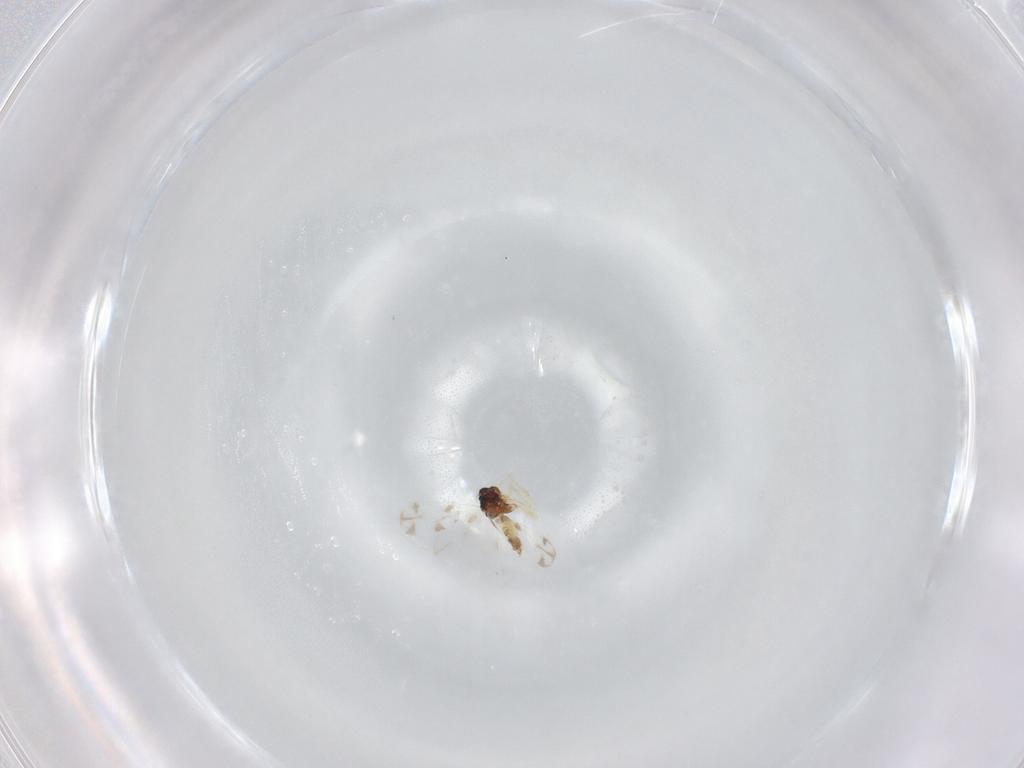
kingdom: Animalia
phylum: Arthropoda
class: Insecta
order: Hemiptera
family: Aleyrodidae
